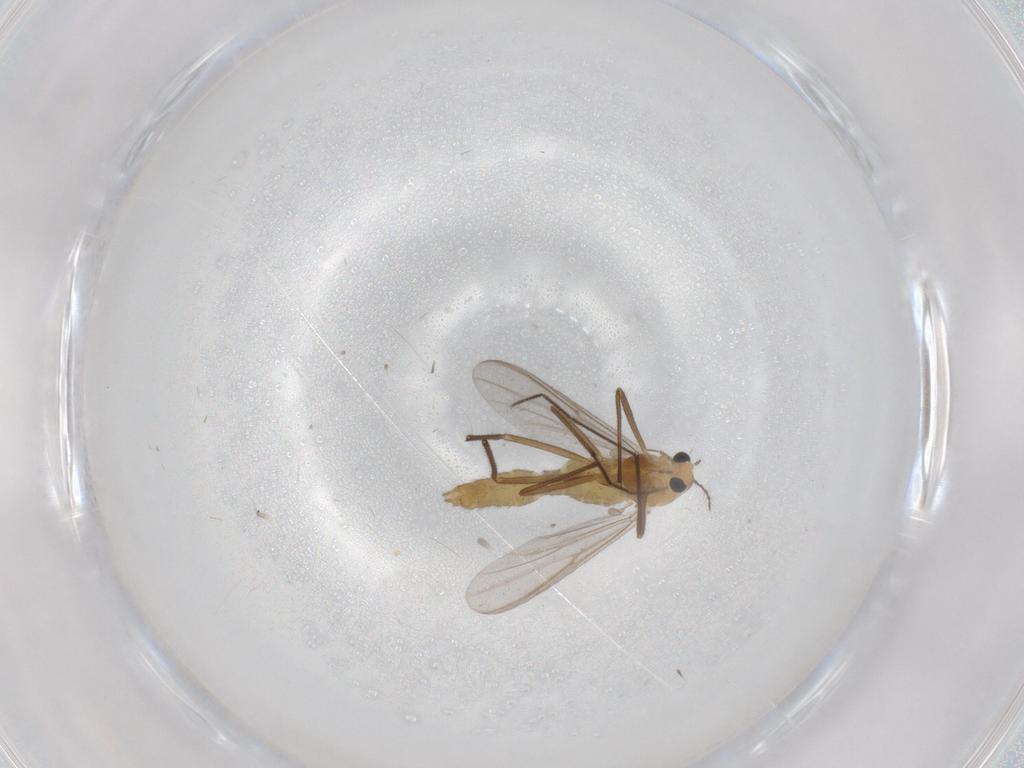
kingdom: Animalia
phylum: Arthropoda
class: Insecta
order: Diptera
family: Chironomidae
